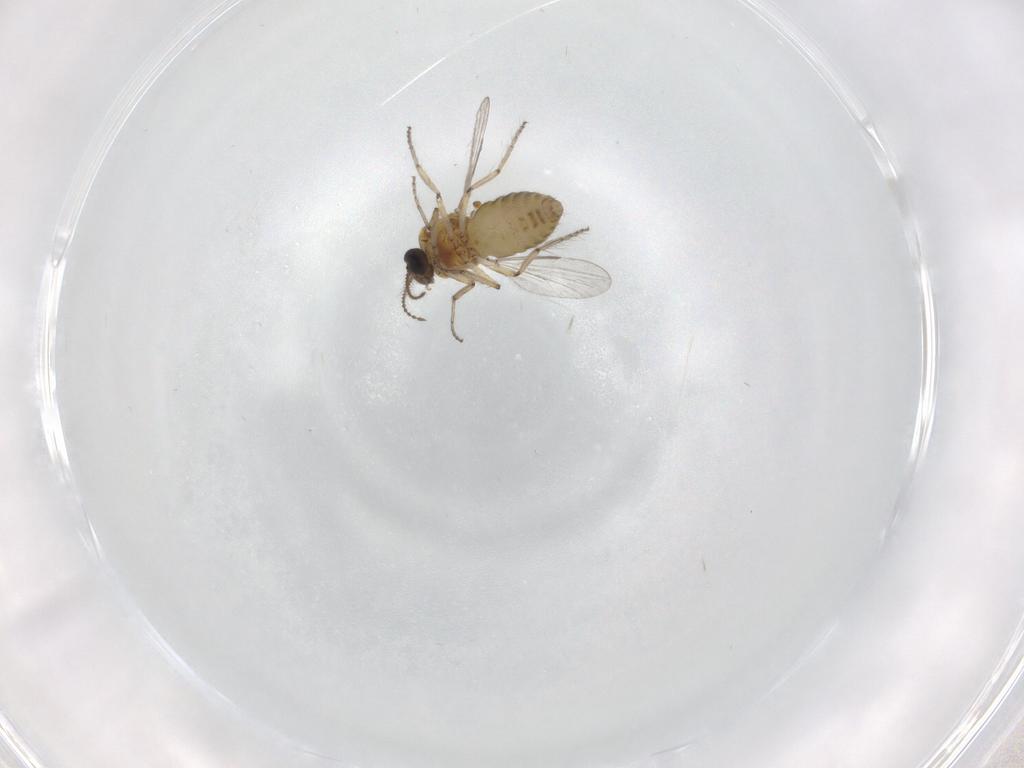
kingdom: Animalia
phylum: Arthropoda
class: Insecta
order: Diptera
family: Ceratopogonidae
